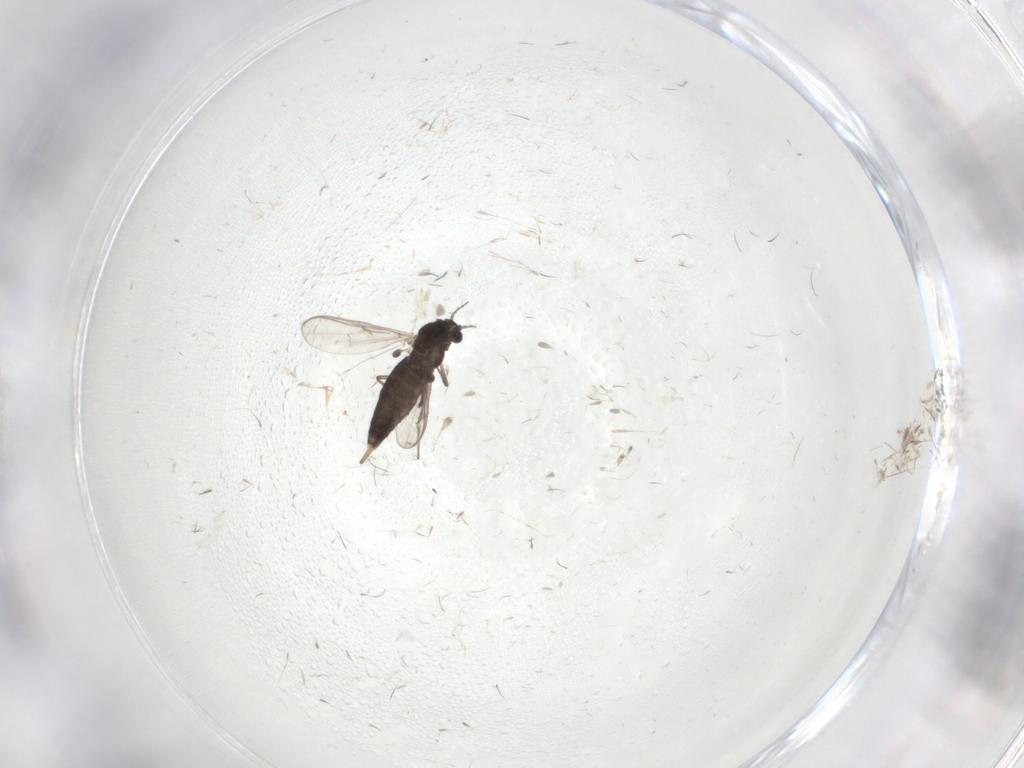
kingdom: Animalia
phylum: Arthropoda
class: Insecta
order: Diptera
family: Chironomidae
